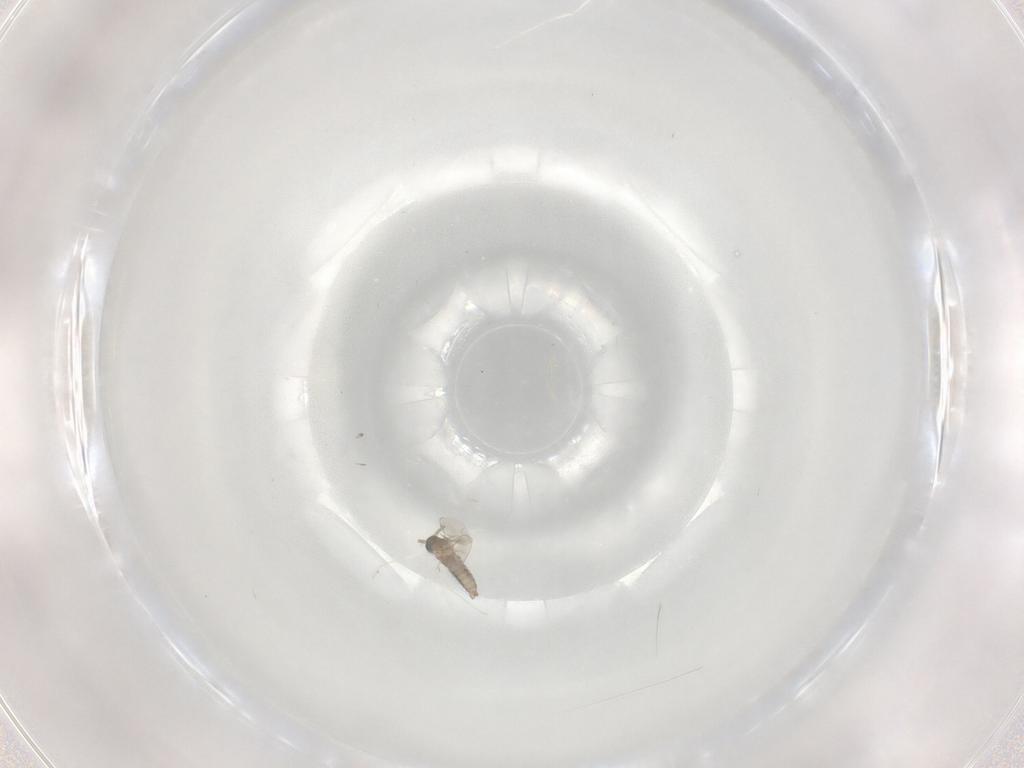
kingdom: Animalia
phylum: Arthropoda
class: Insecta
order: Diptera
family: Cecidomyiidae
